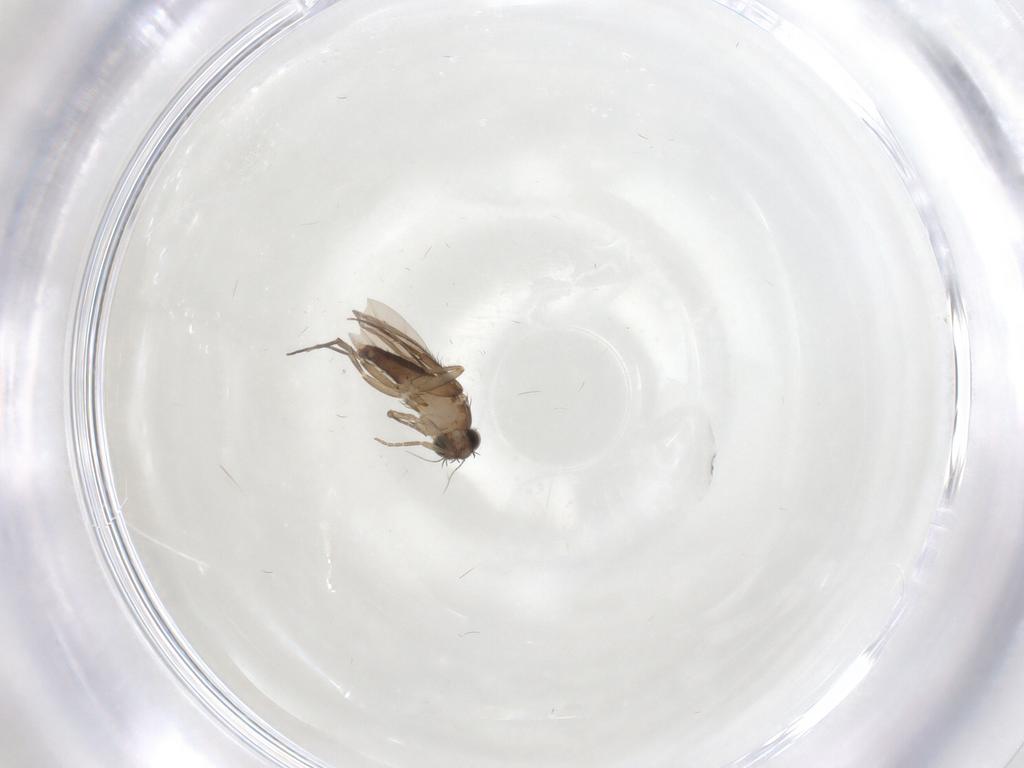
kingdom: Animalia
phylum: Arthropoda
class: Insecta
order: Diptera
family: Phoridae
